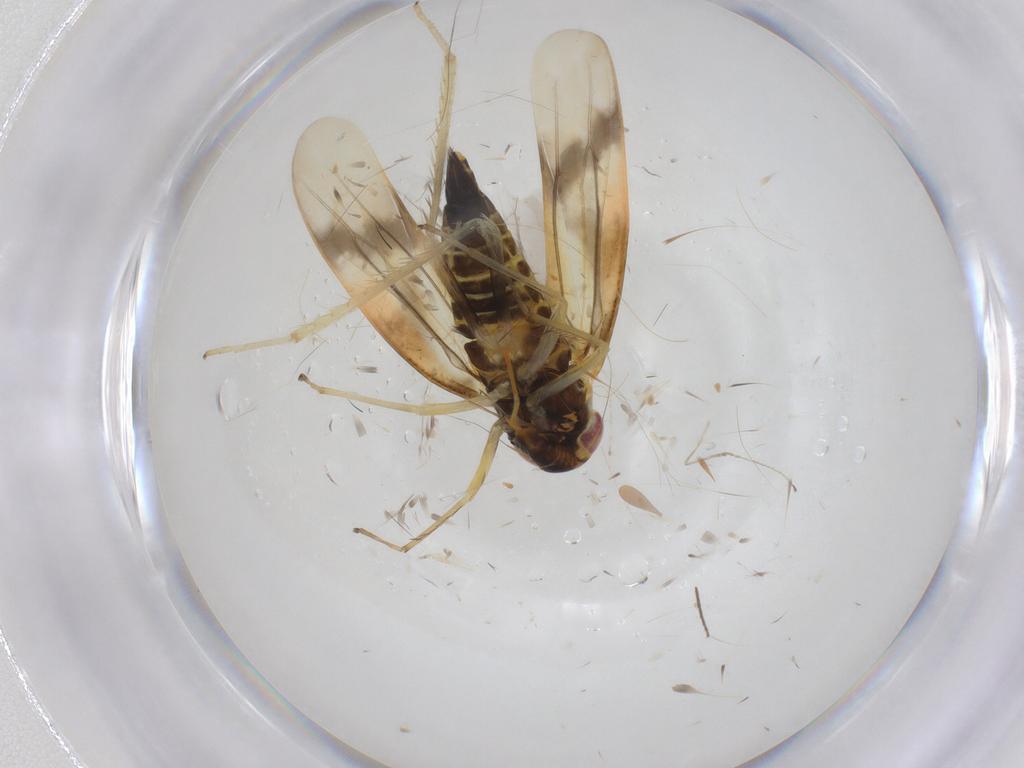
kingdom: Animalia
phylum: Arthropoda
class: Insecta
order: Hemiptera
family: Cicadellidae
